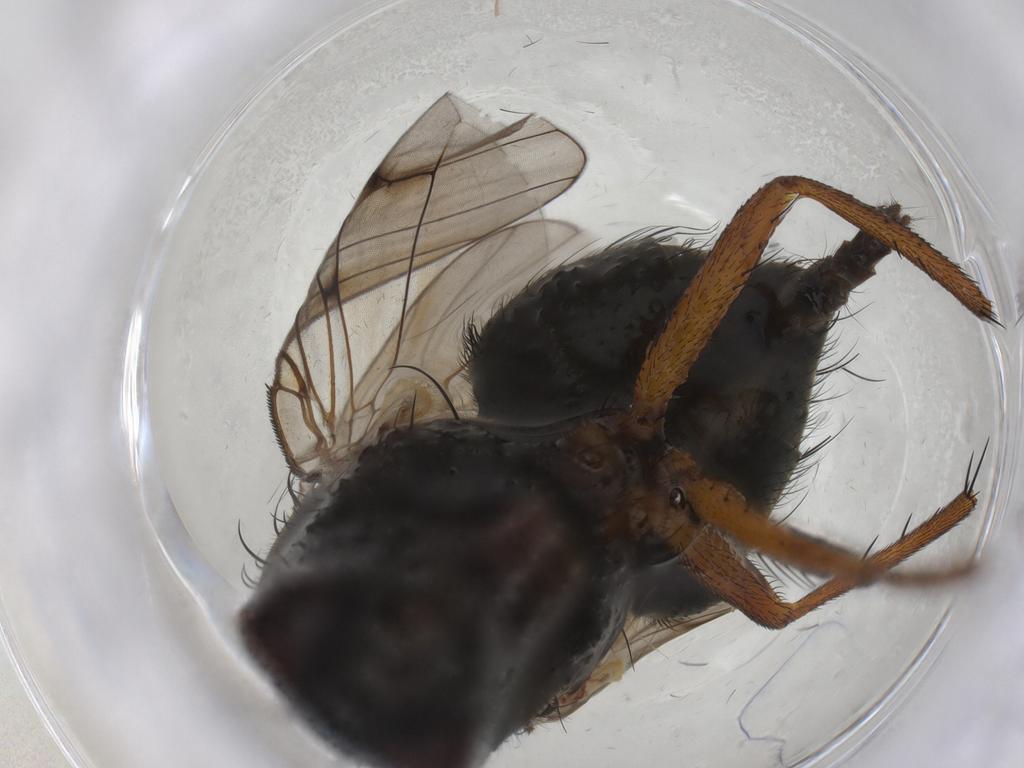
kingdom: Animalia
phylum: Arthropoda
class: Insecta
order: Diptera
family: Muscidae
